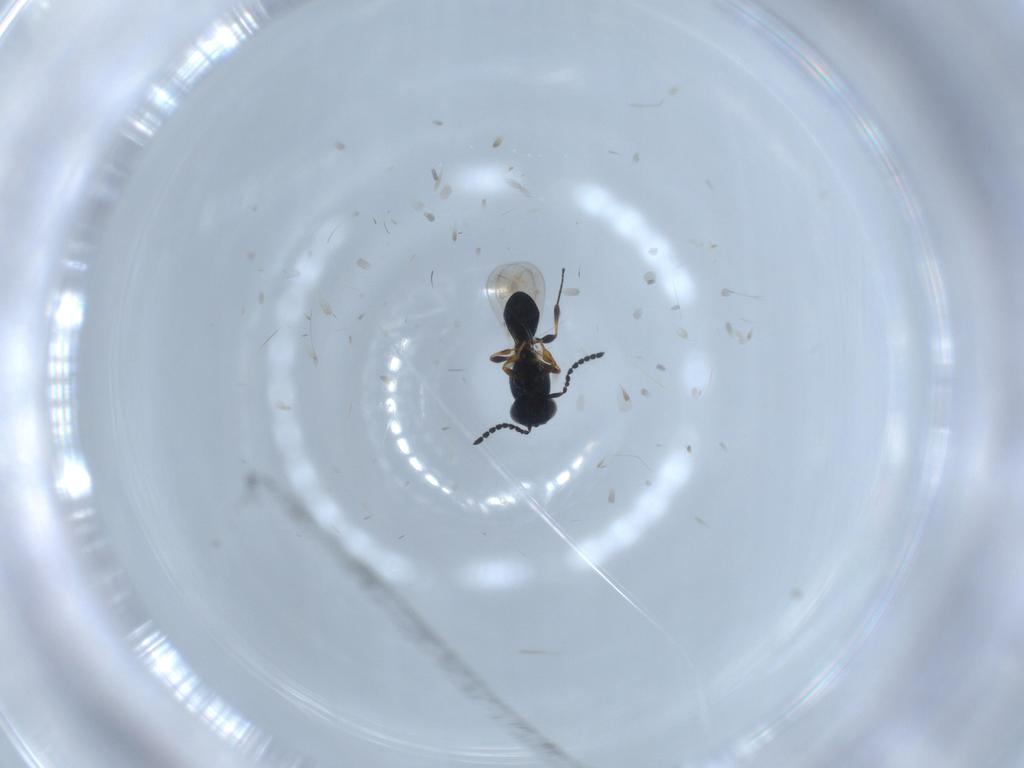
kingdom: Animalia
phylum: Arthropoda
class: Insecta
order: Hymenoptera
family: Platygastridae
